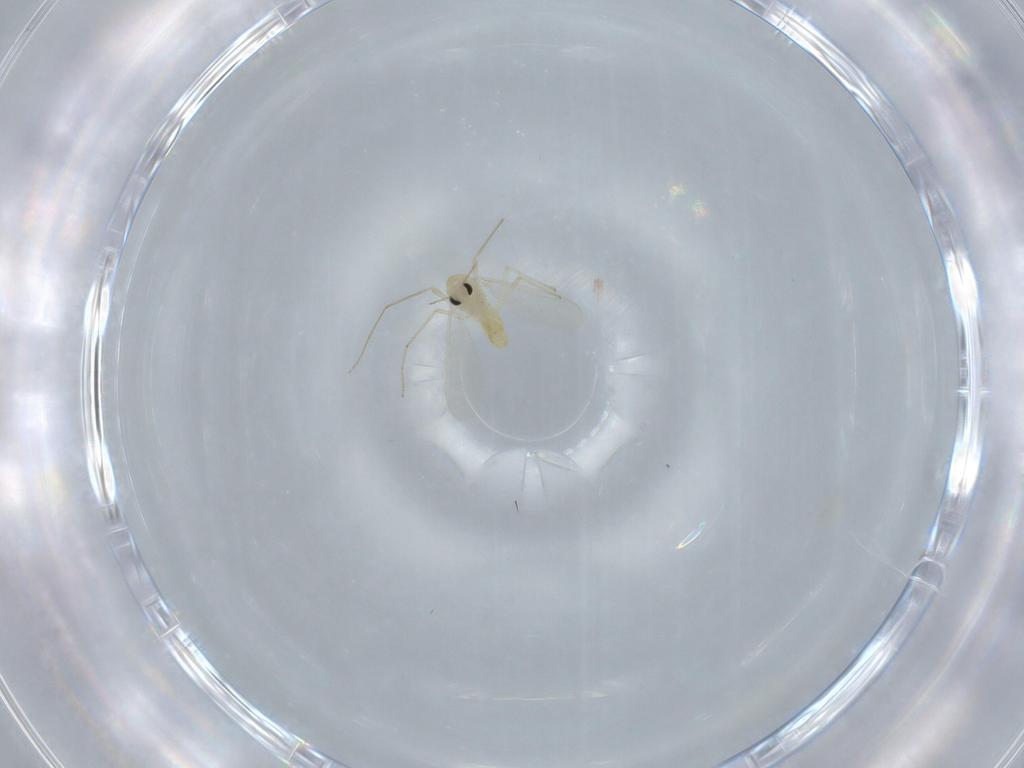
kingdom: Animalia
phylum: Arthropoda
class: Insecta
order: Diptera
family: Chironomidae
